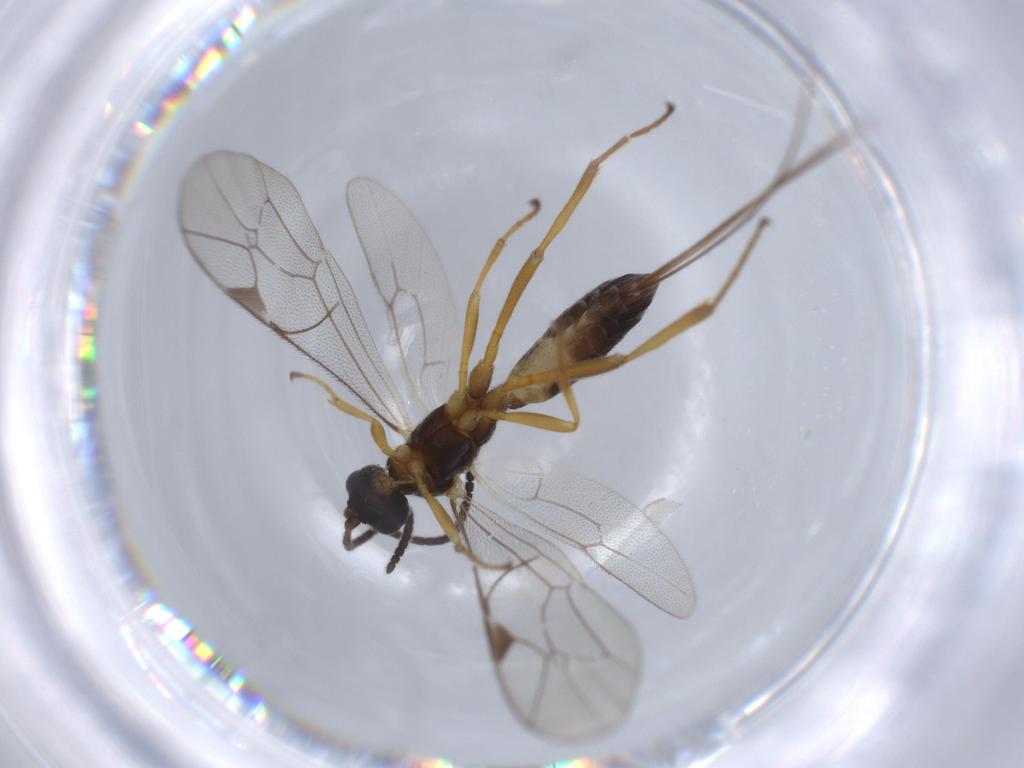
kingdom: Animalia
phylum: Arthropoda
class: Insecta
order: Hymenoptera
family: Ichneumonidae
